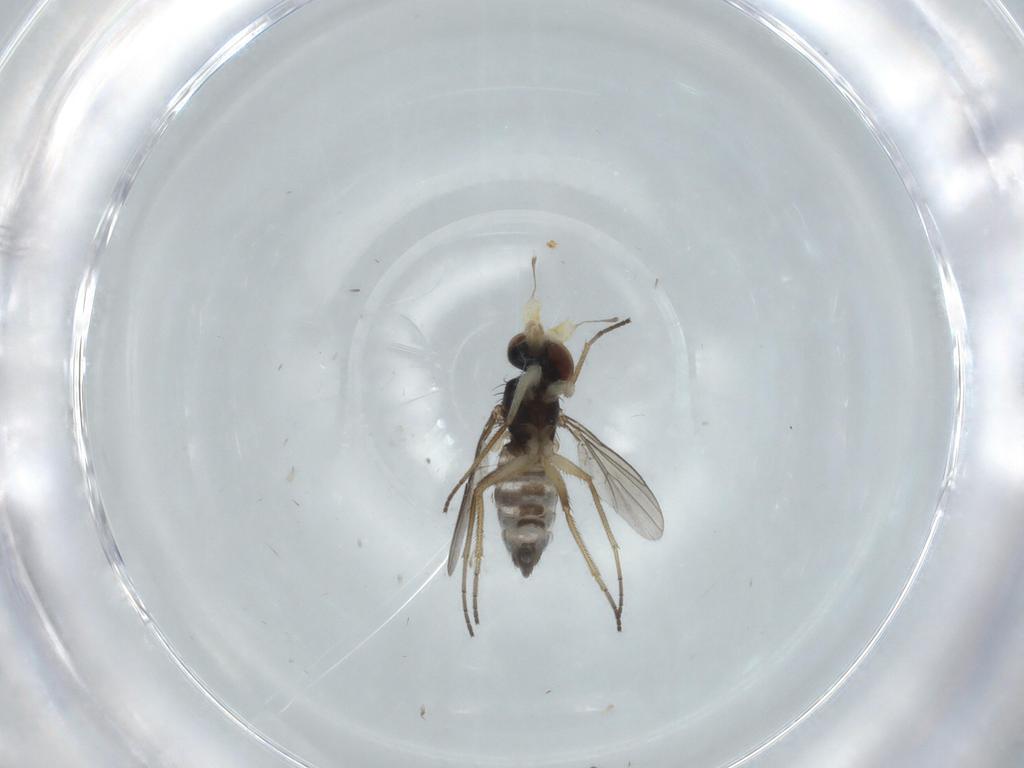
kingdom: Animalia
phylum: Arthropoda
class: Insecta
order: Diptera
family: Dolichopodidae
